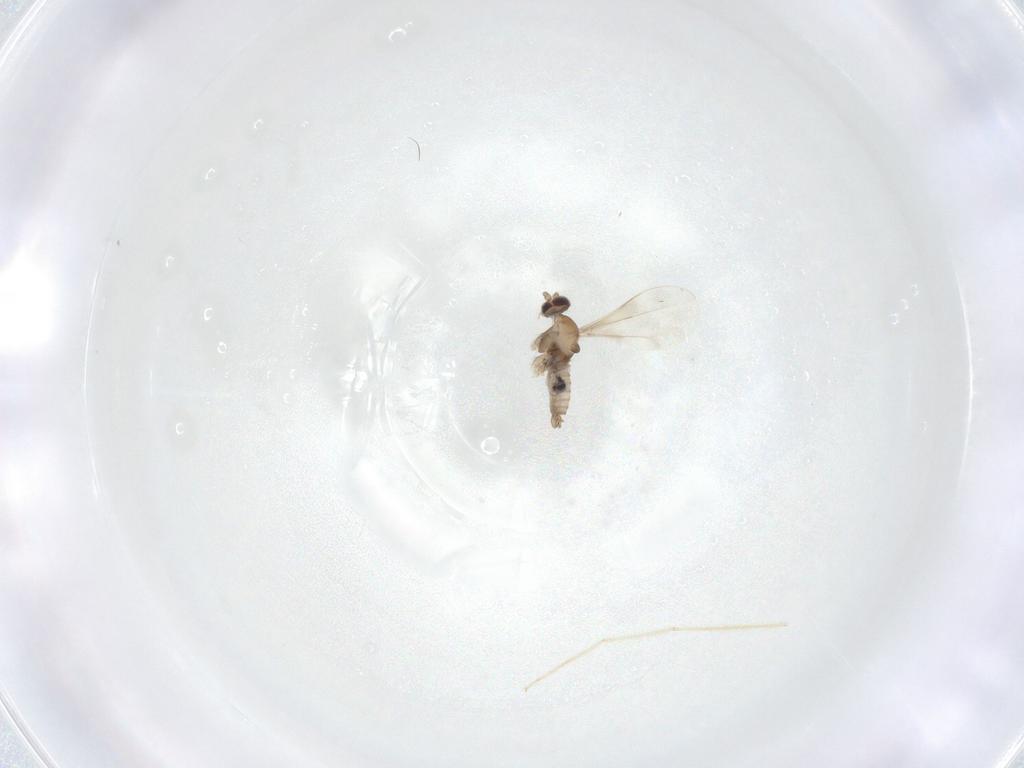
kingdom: Animalia
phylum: Arthropoda
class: Insecta
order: Diptera
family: Cecidomyiidae
